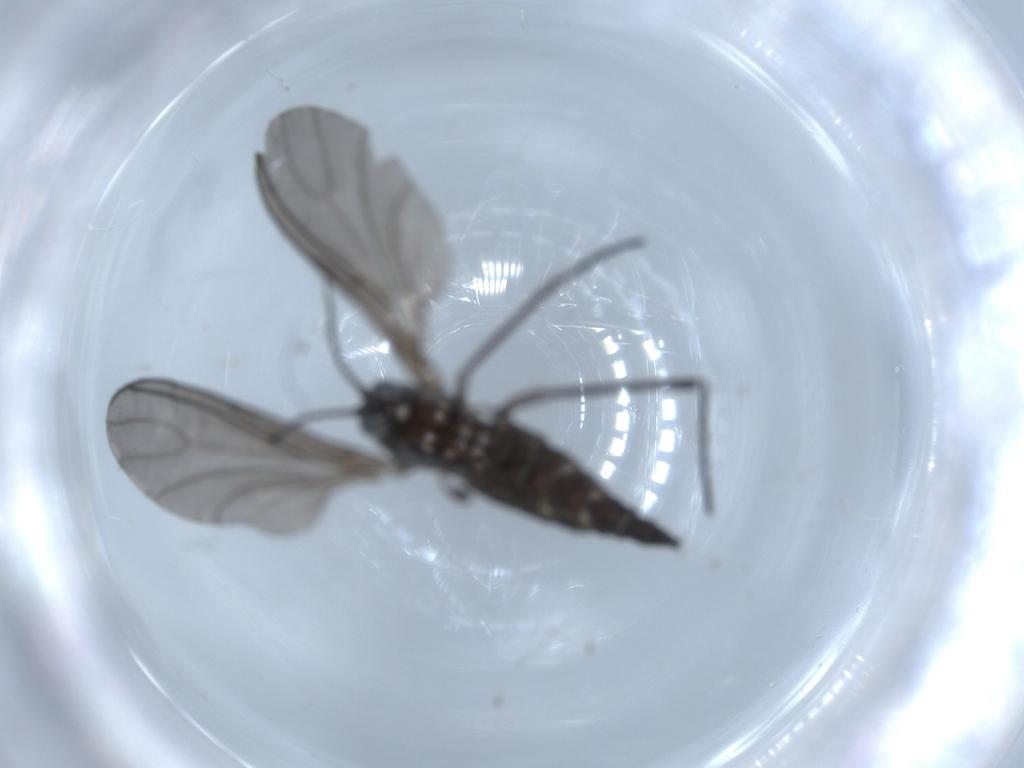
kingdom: Animalia
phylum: Arthropoda
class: Insecta
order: Diptera
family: Sciaridae
